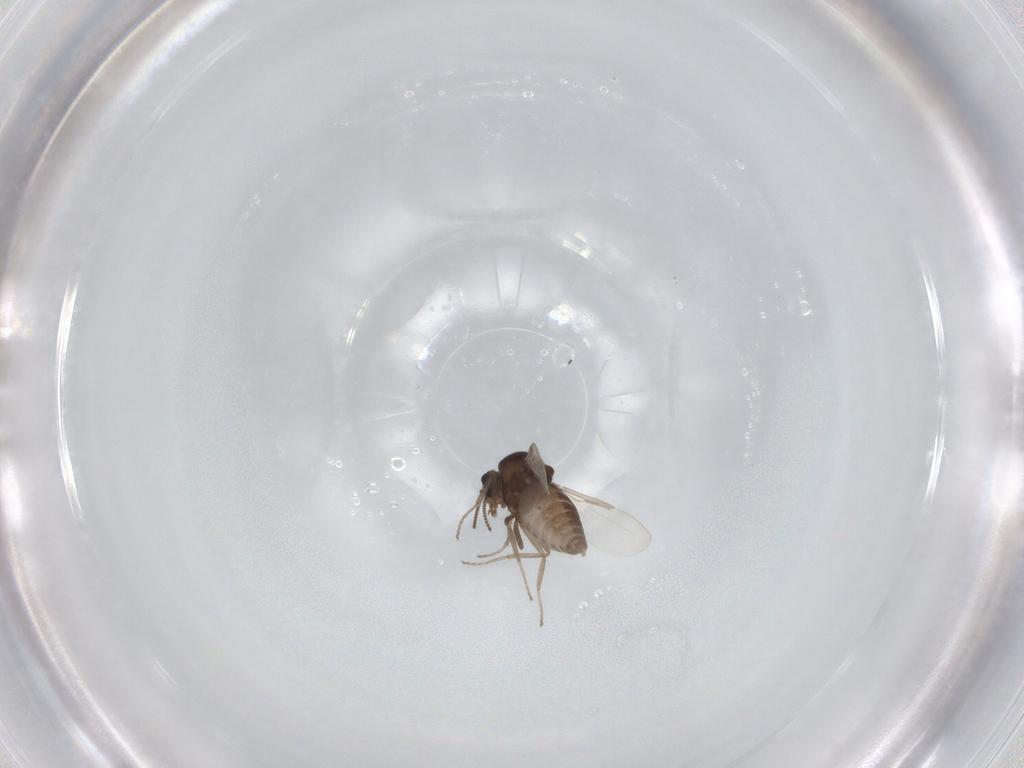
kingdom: Animalia
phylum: Arthropoda
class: Insecta
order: Diptera
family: Ceratopogonidae
